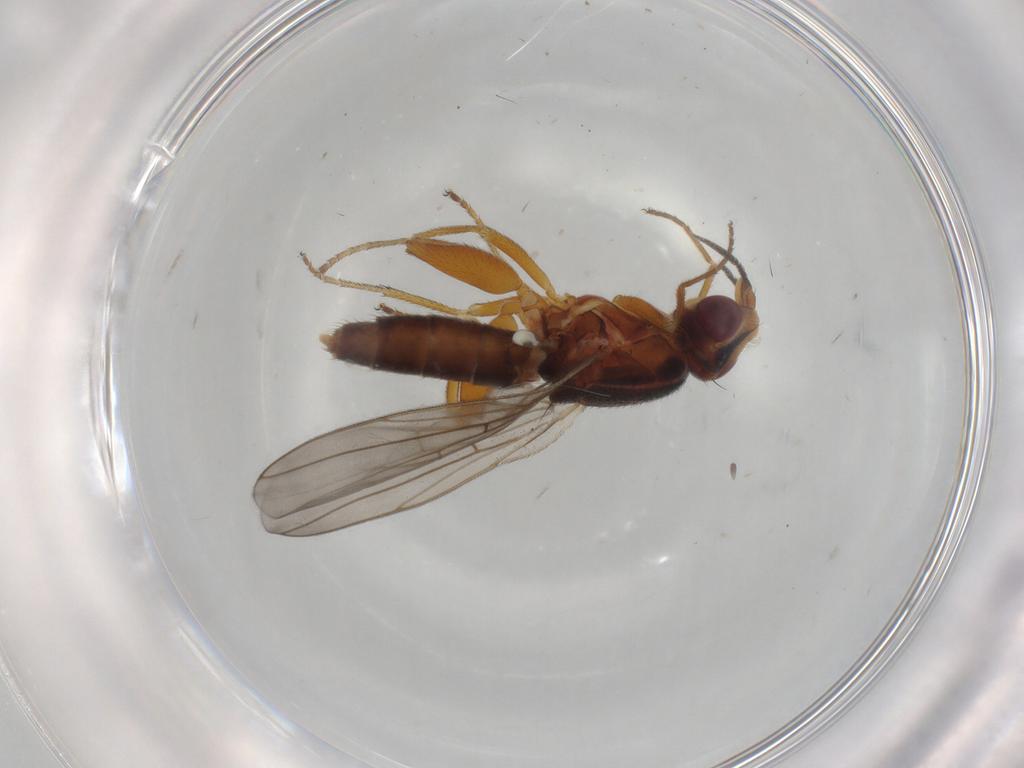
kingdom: Animalia
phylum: Arthropoda
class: Insecta
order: Diptera
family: Chloropidae
